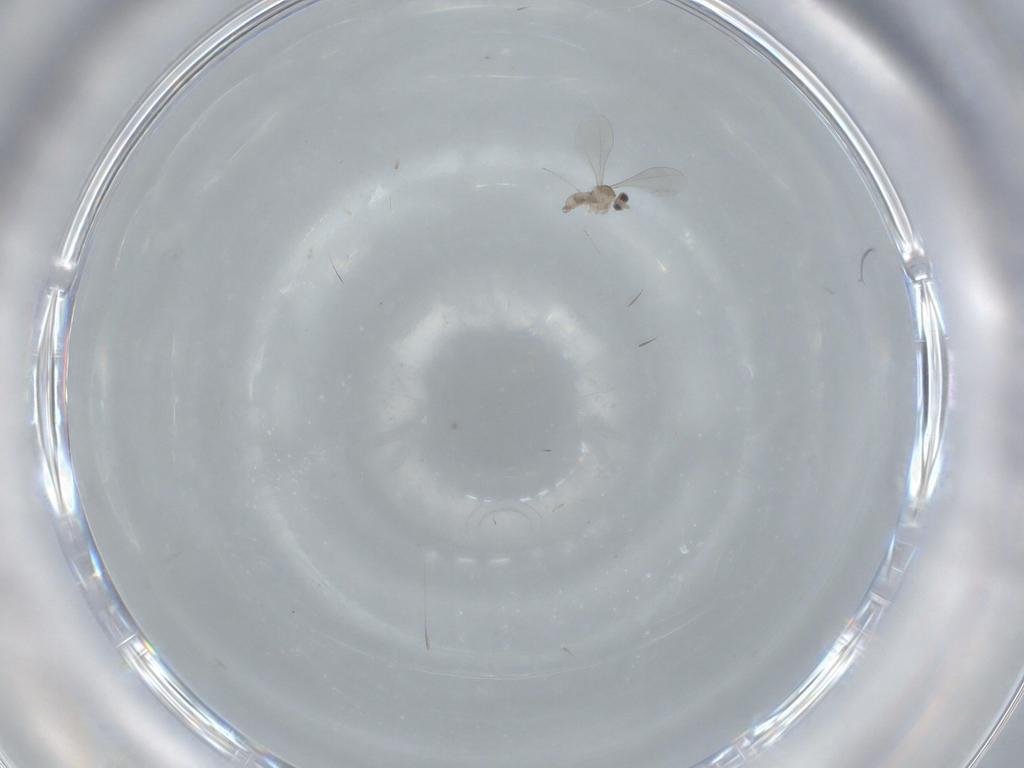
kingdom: Animalia
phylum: Arthropoda
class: Insecta
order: Diptera
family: Cecidomyiidae
